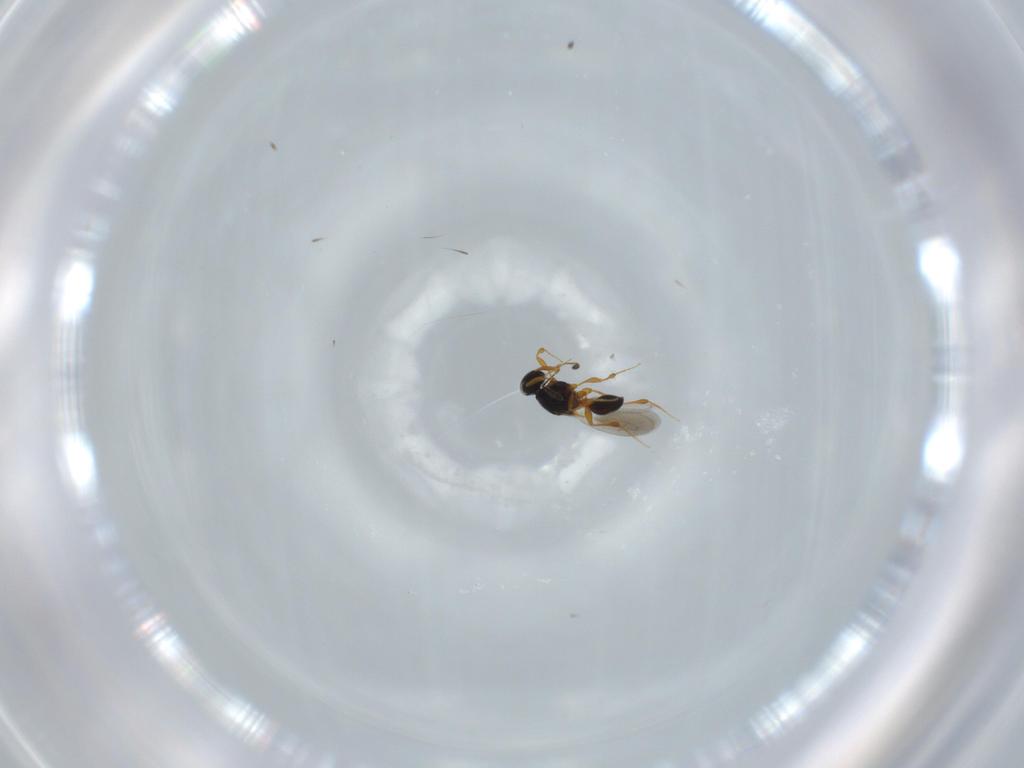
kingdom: Animalia
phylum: Arthropoda
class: Insecta
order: Hymenoptera
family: Platygastridae
